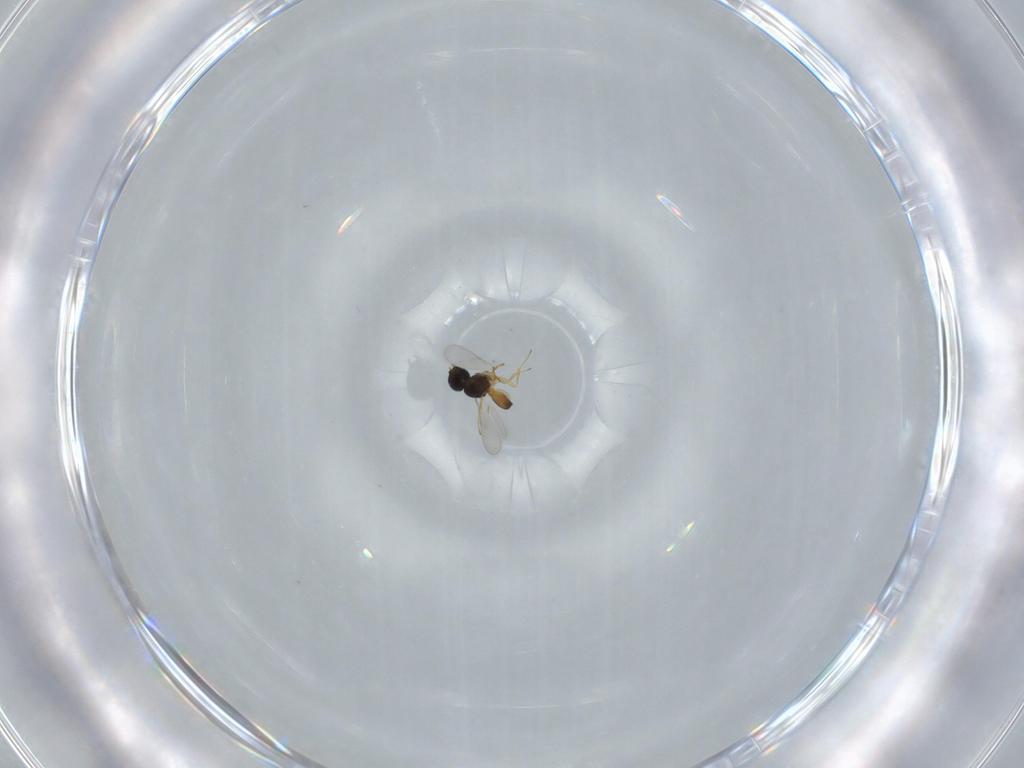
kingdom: Animalia
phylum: Arthropoda
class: Insecta
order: Hymenoptera
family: Scelionidae
